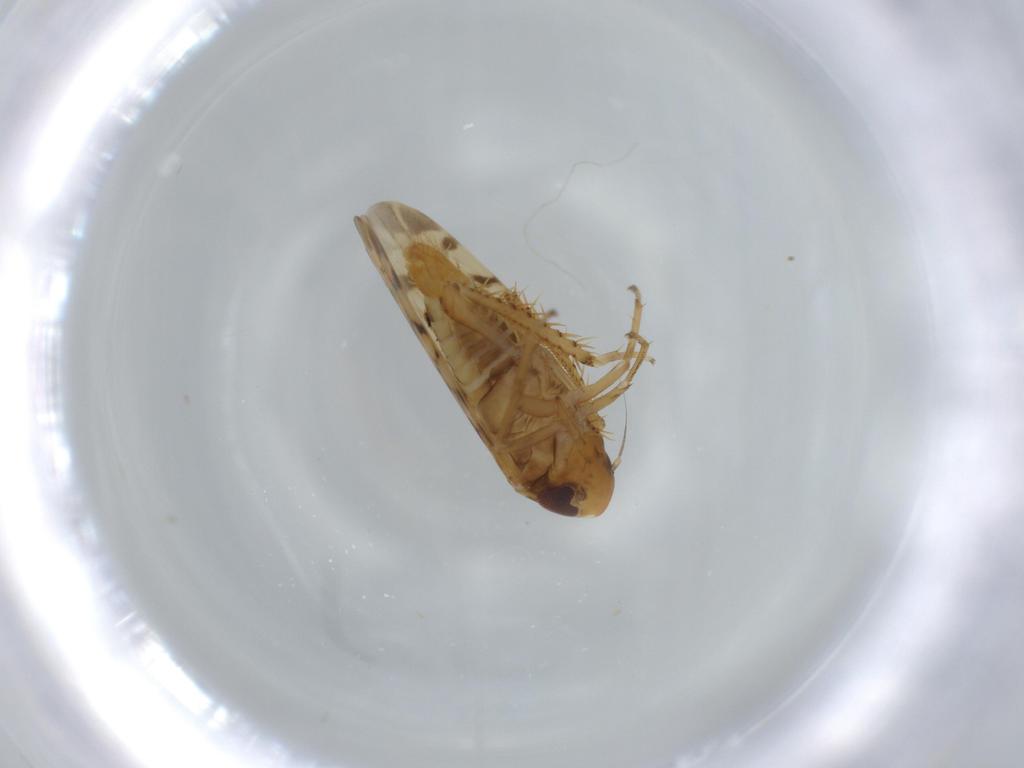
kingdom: Animalia
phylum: Arthropoda
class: Insecta
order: Hemiptera
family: Cicadellidae
